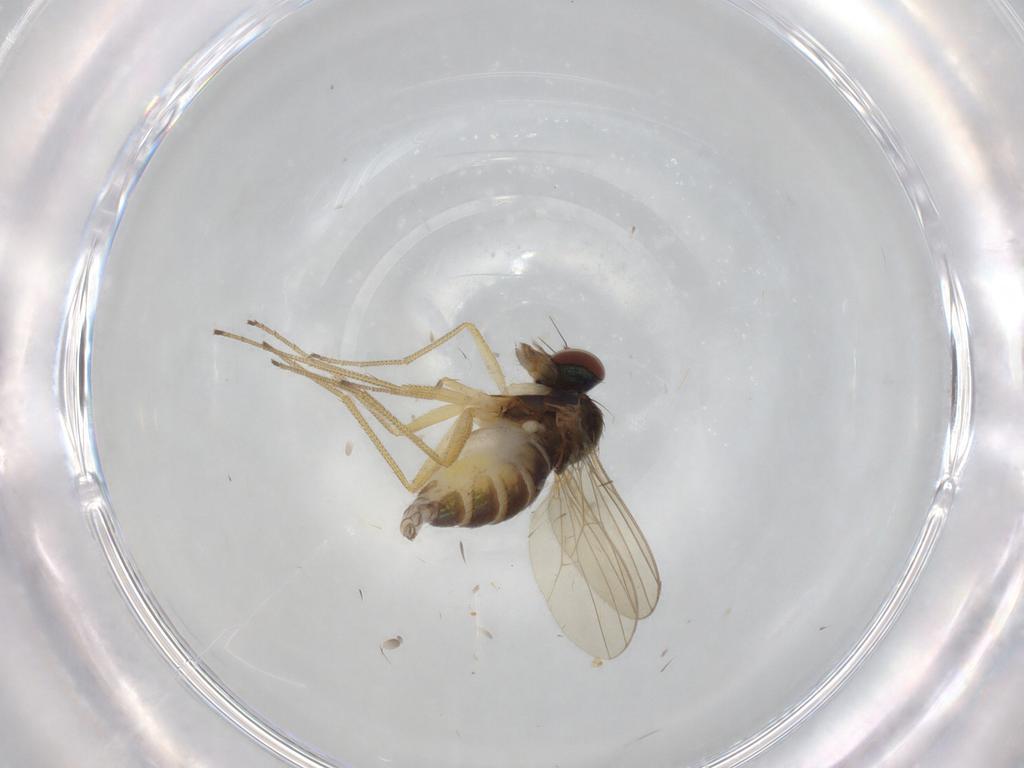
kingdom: Animalia
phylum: Arthropoda
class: Insecta
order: Diptera
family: Dolichopodidae
